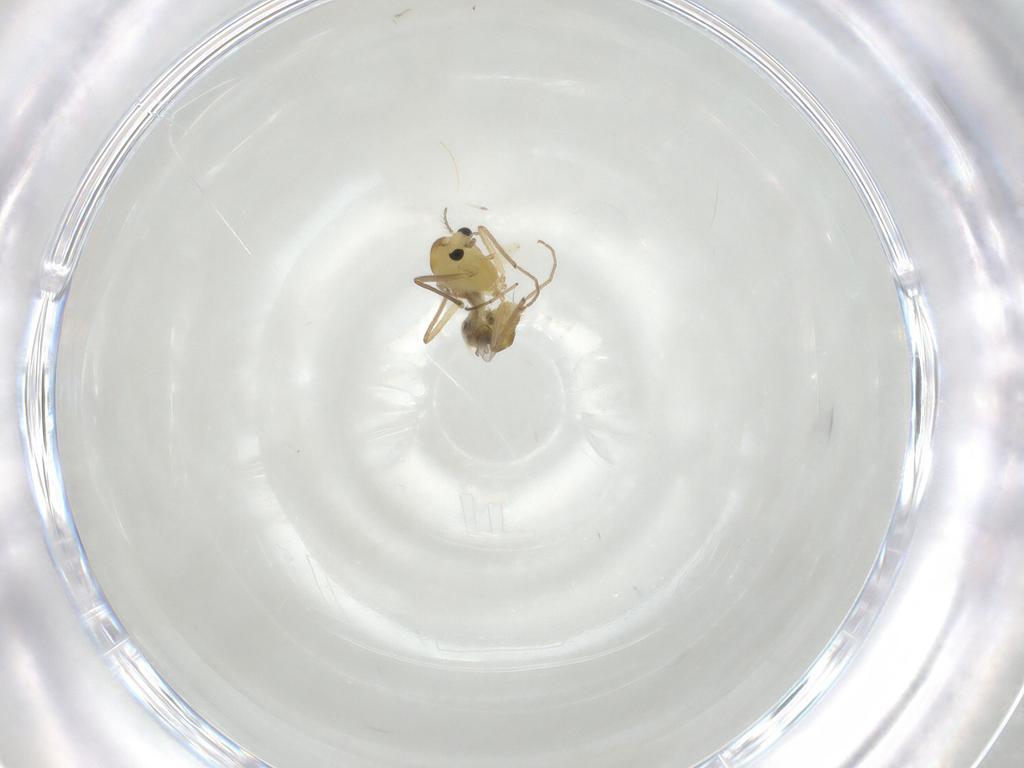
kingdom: Animalia
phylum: Arthropoda
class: Insecta
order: Diptera
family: Chironomidae
